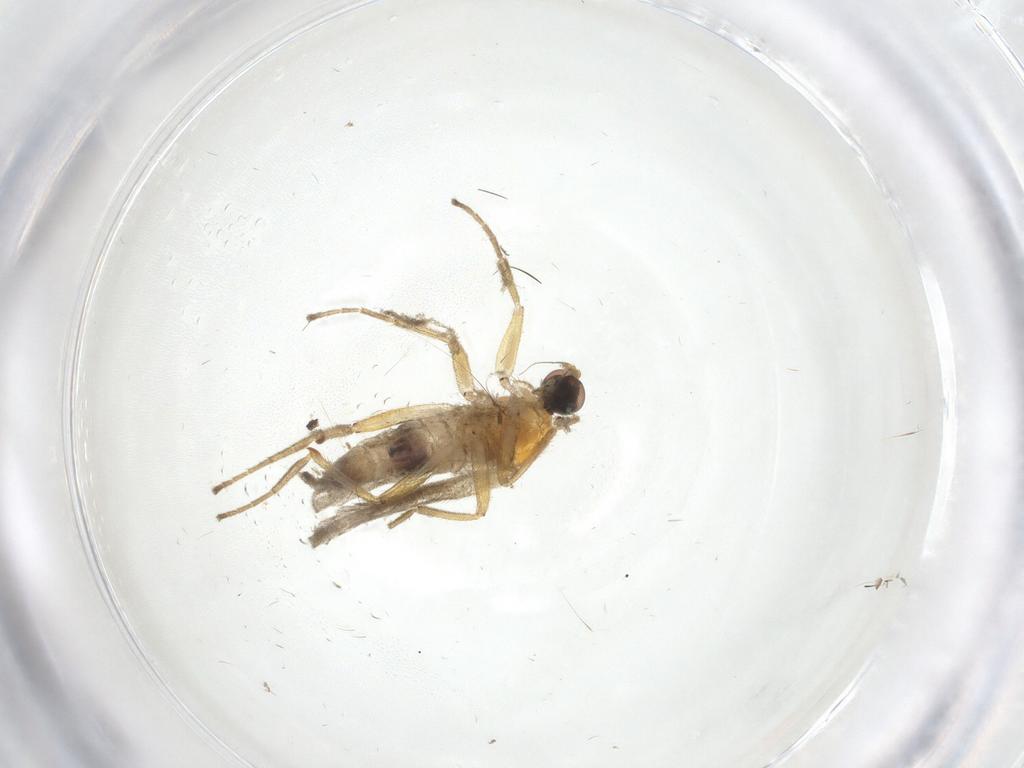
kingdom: Animalia
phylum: Arthropoda
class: Insecta
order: Diptera
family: Hybotidae
